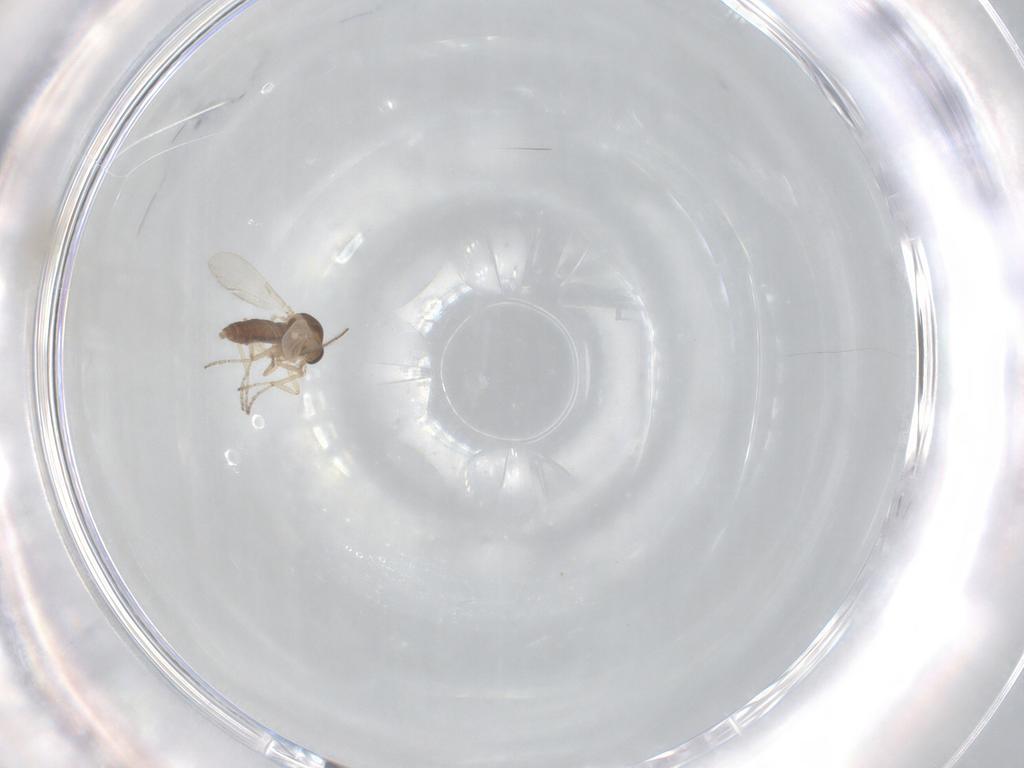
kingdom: Animalia
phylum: Arthropoda
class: Insecta
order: Diptera
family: Ceratopogonidae
